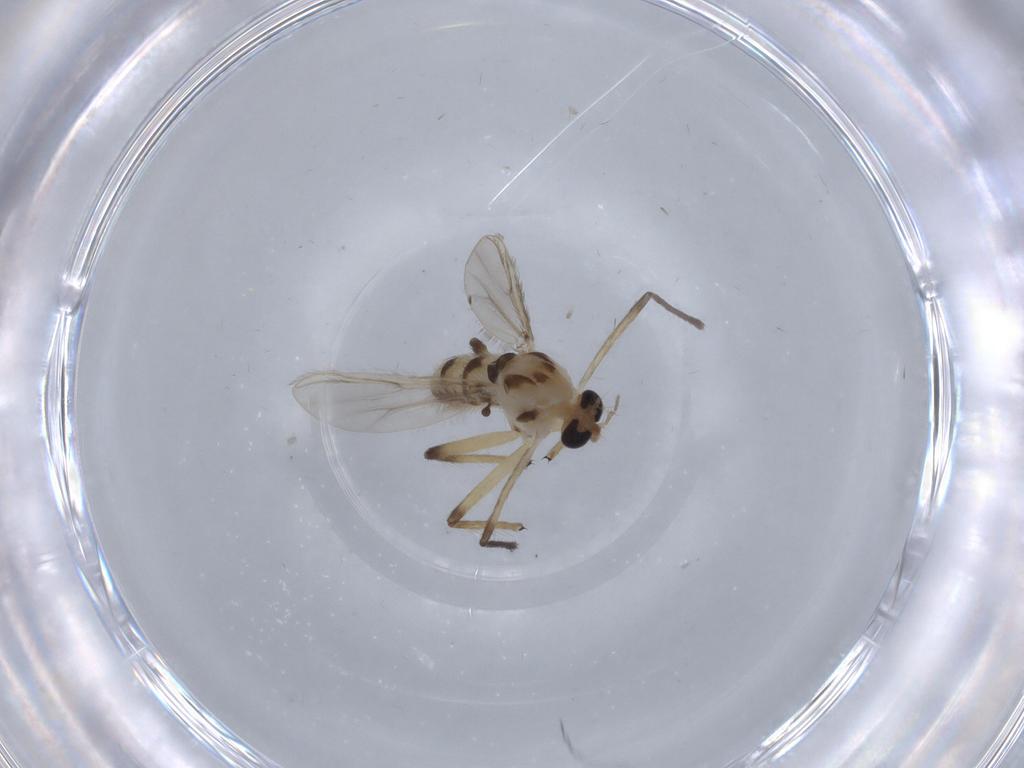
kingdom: Animalia
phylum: Arthropoda
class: Insecta
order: Diptera
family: Chironomidae
